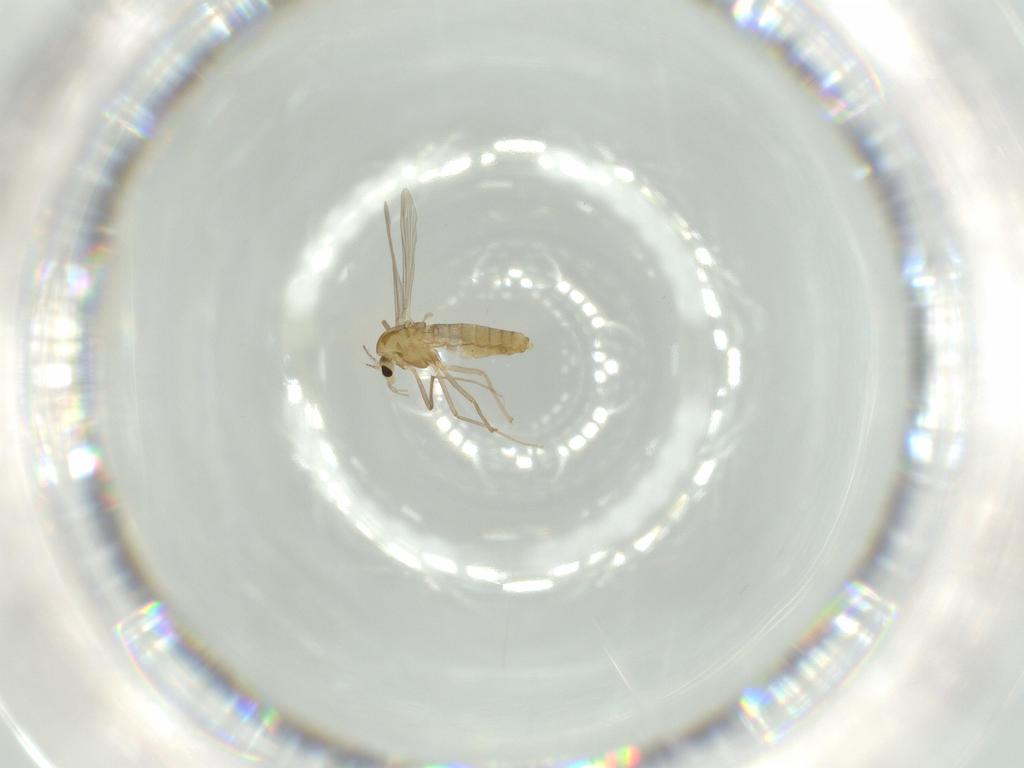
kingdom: Animalia
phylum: Arthropoda
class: Insecta
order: Diptera
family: Chironomidae
